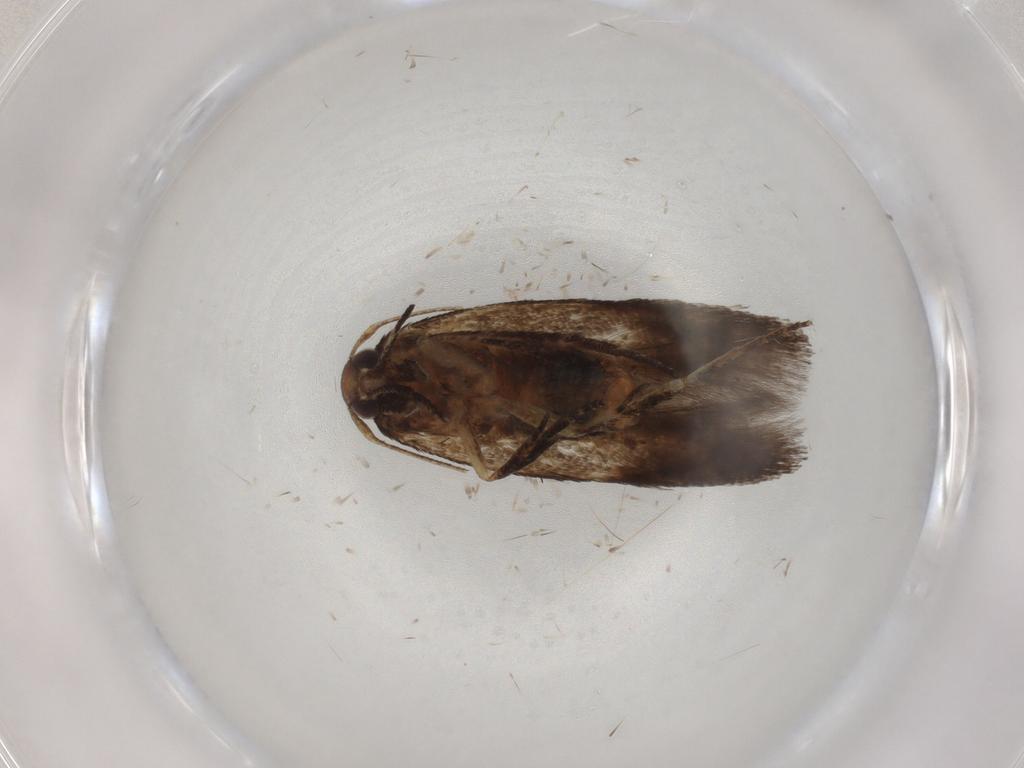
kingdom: Animalia
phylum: Arthropoda
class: Insecta
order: Lepidoptera
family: Cosmopterigidae
